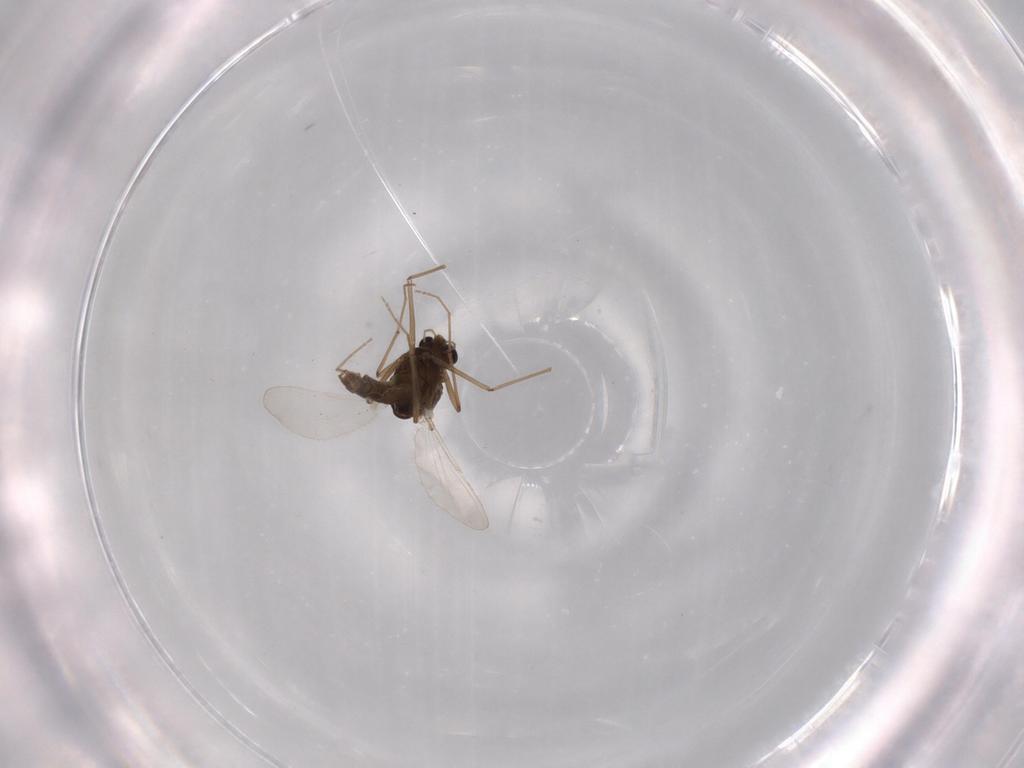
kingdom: Animalia
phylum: Arthropoda
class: Insecta
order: Diptera
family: Chironomidae
